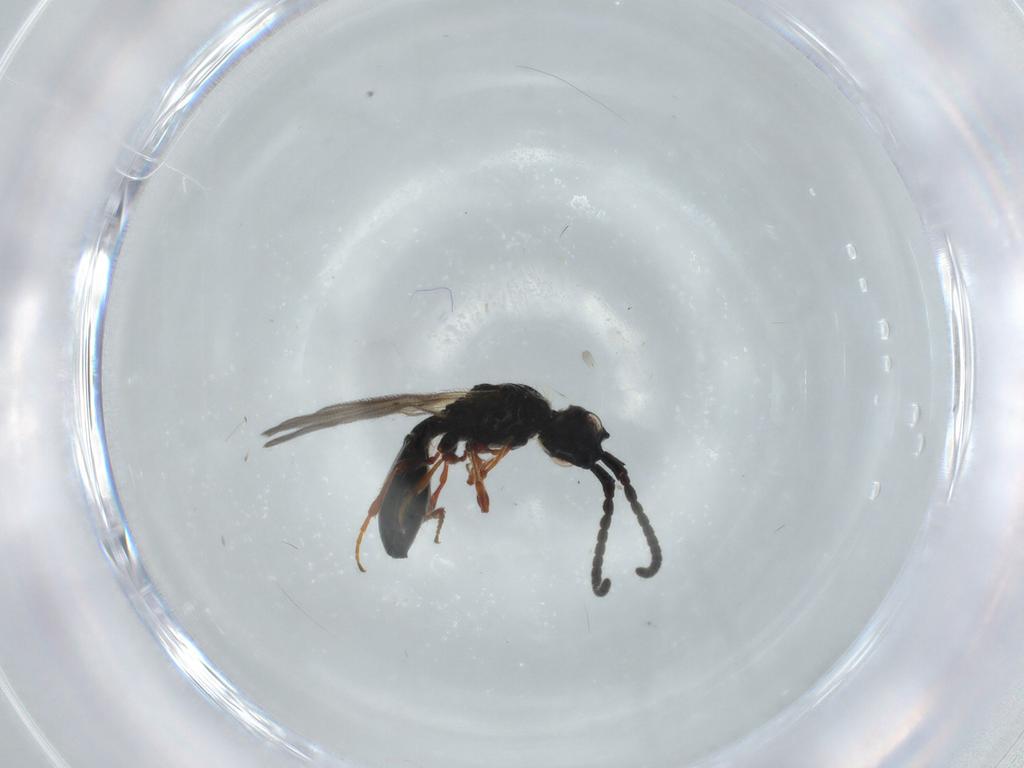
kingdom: Animalia
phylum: Arthropoda
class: Insecta
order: Hymenoptera
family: Diapriidae
